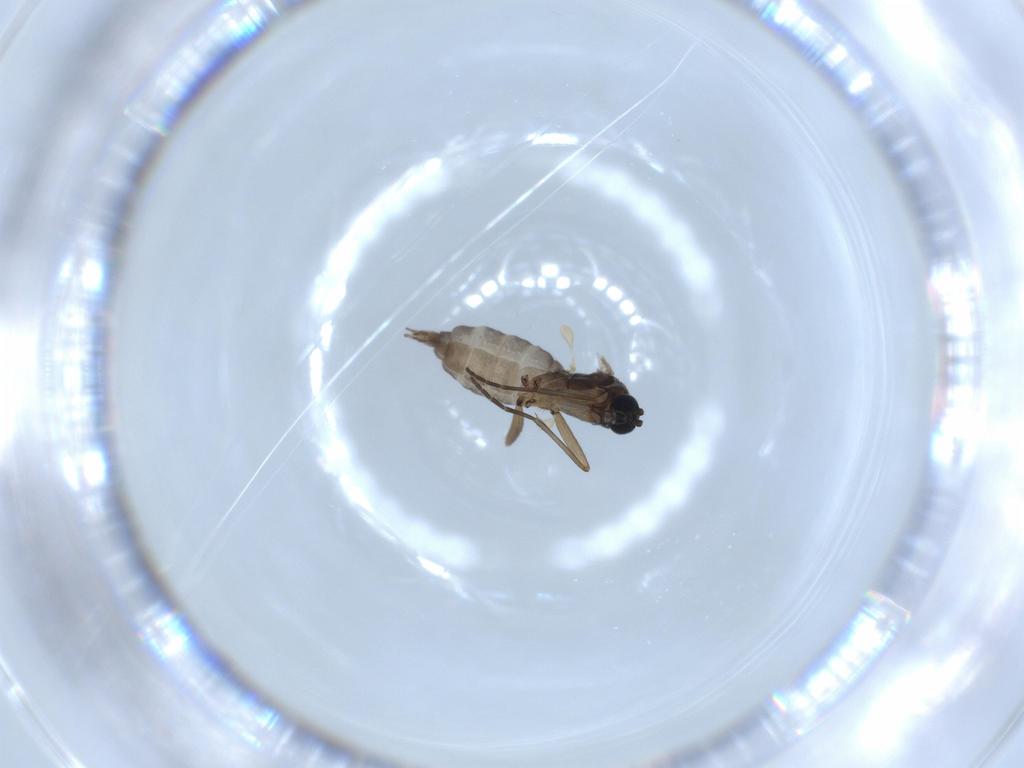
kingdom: Animalia
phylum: Arthropoda
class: Insecta
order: Diptera
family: Sciaridae
